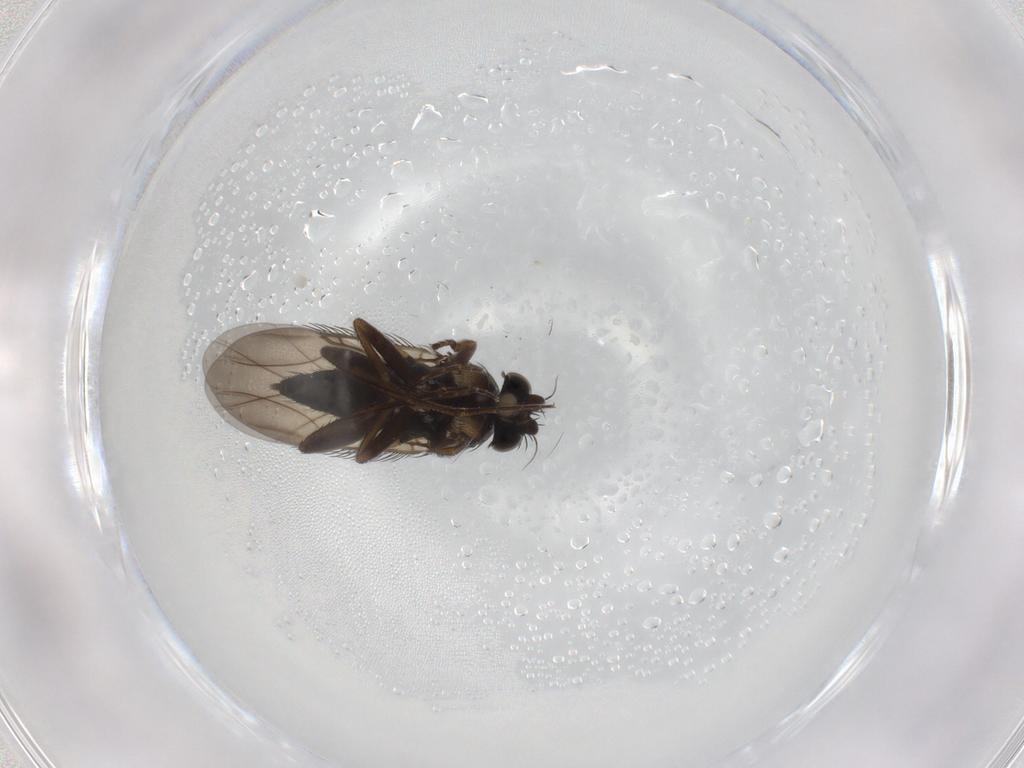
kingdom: Animalia
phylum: Arthropoda
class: Insecta
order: Diptera
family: Phoridae
